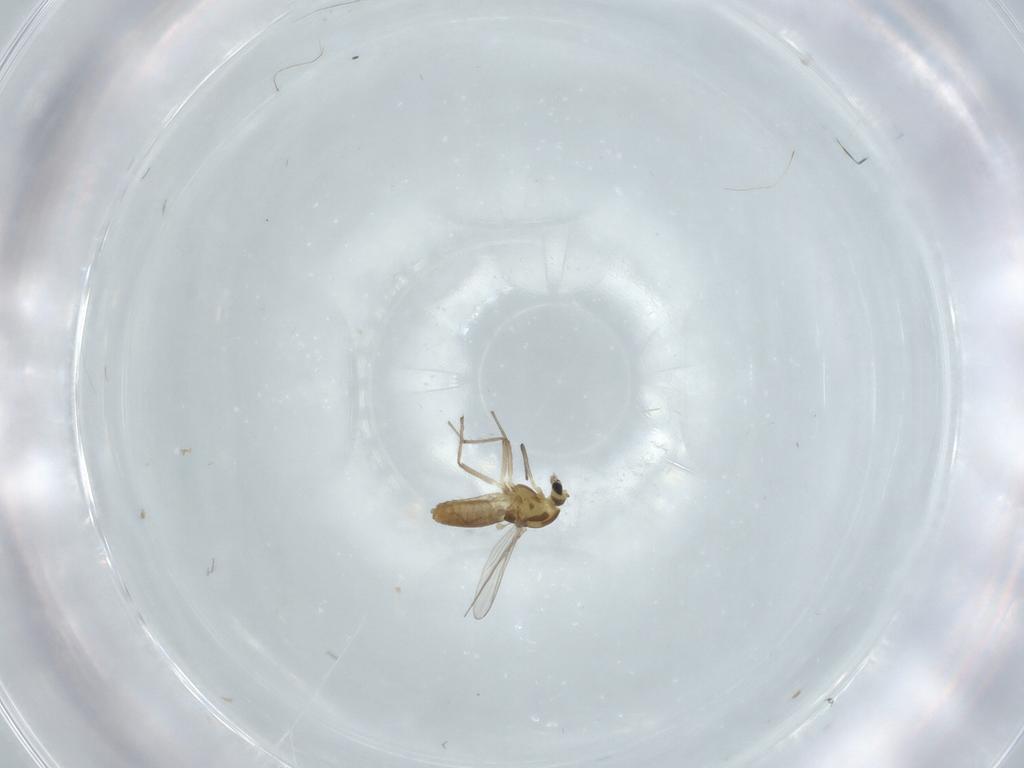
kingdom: Animalia
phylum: Arthropoda
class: Insecta
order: Diptera
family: Chironomidae
